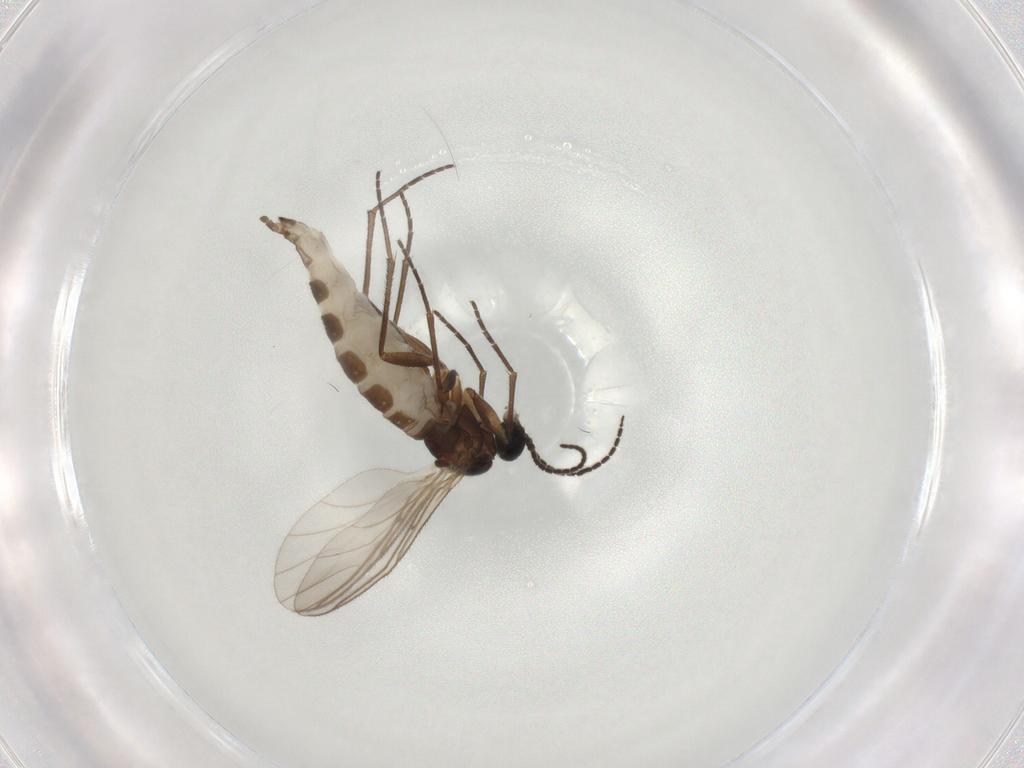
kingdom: Animalia
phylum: Arthropoda
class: Insecta
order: Diptera
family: Sciaridae
